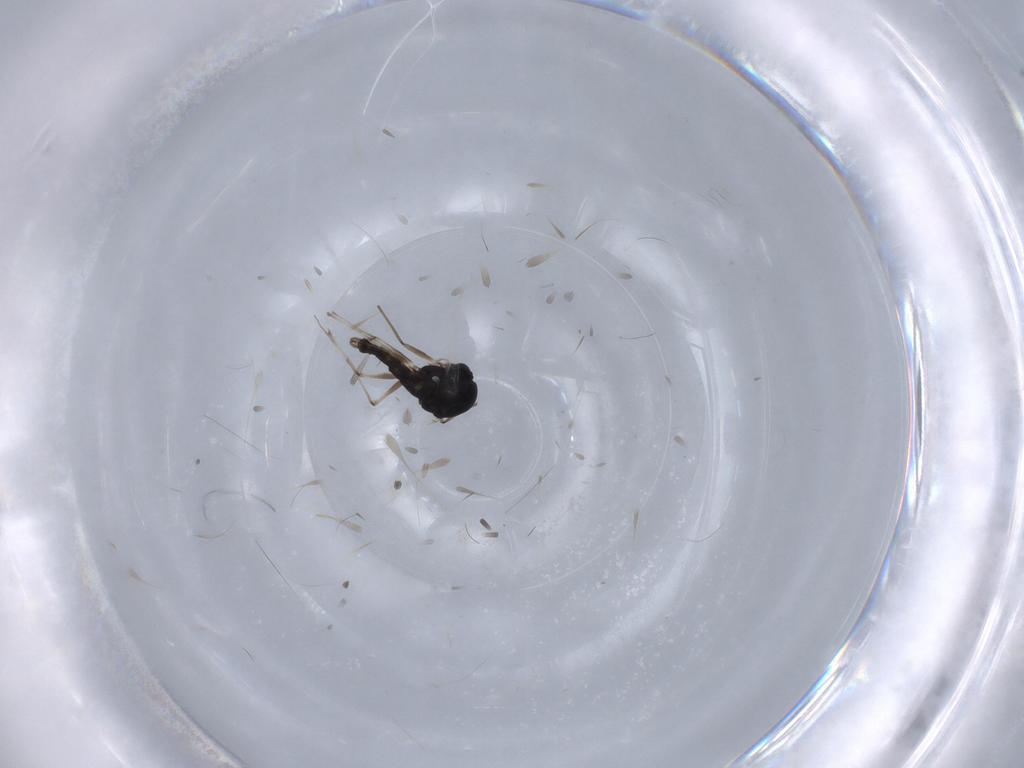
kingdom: Animalia
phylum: Arthropoda
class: Insecta
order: Diptera
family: Chironomidae
